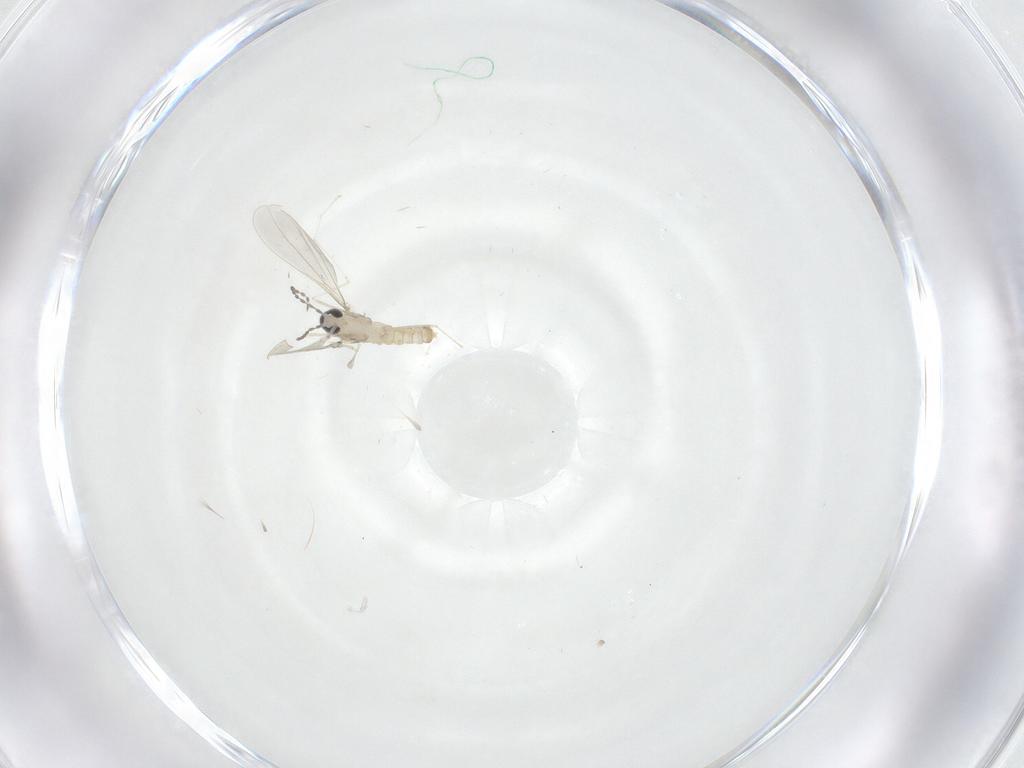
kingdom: Animalia
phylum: Arthropoda
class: Insecta
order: Diptera
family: Cecidomyiidae
